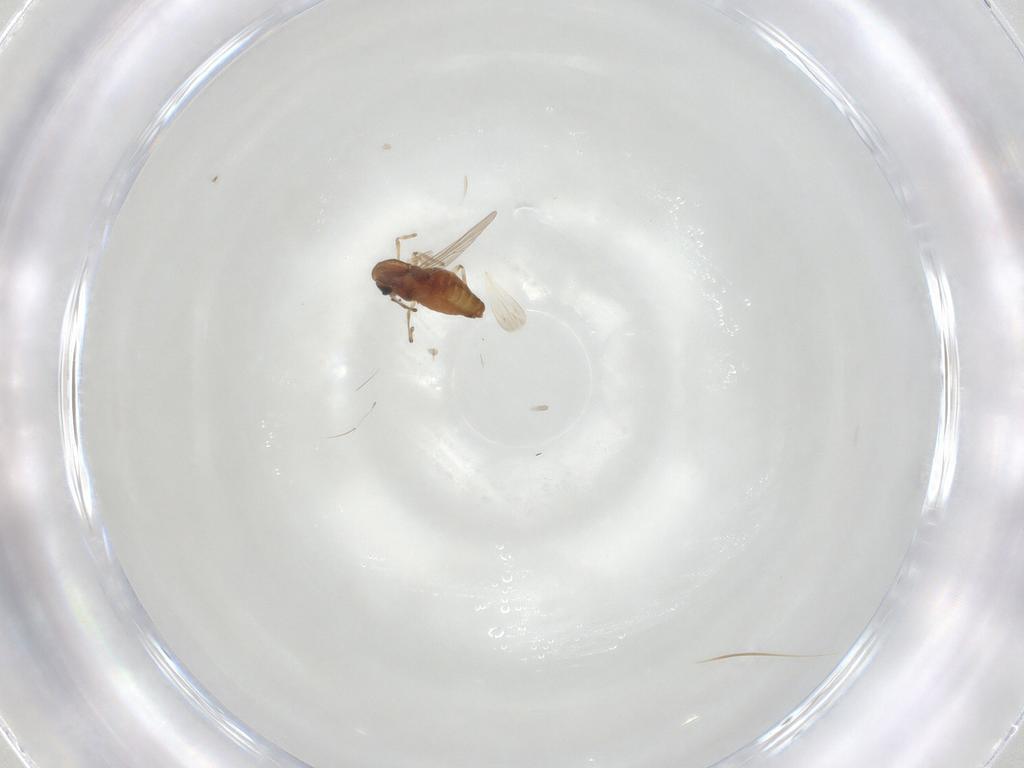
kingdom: Animalia
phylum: Arthropoda
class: Insecta
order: Diptera
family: Chironomidae
